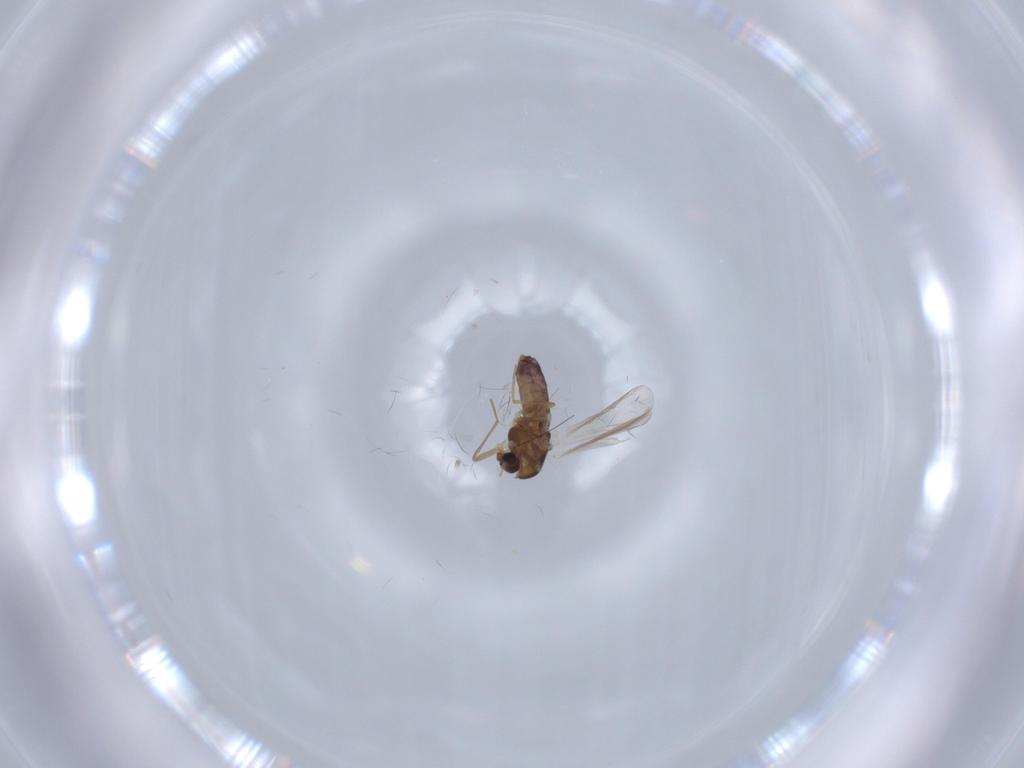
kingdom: Animalia
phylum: Arthropoda
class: Insecta
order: Diptera
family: Chironomidae
